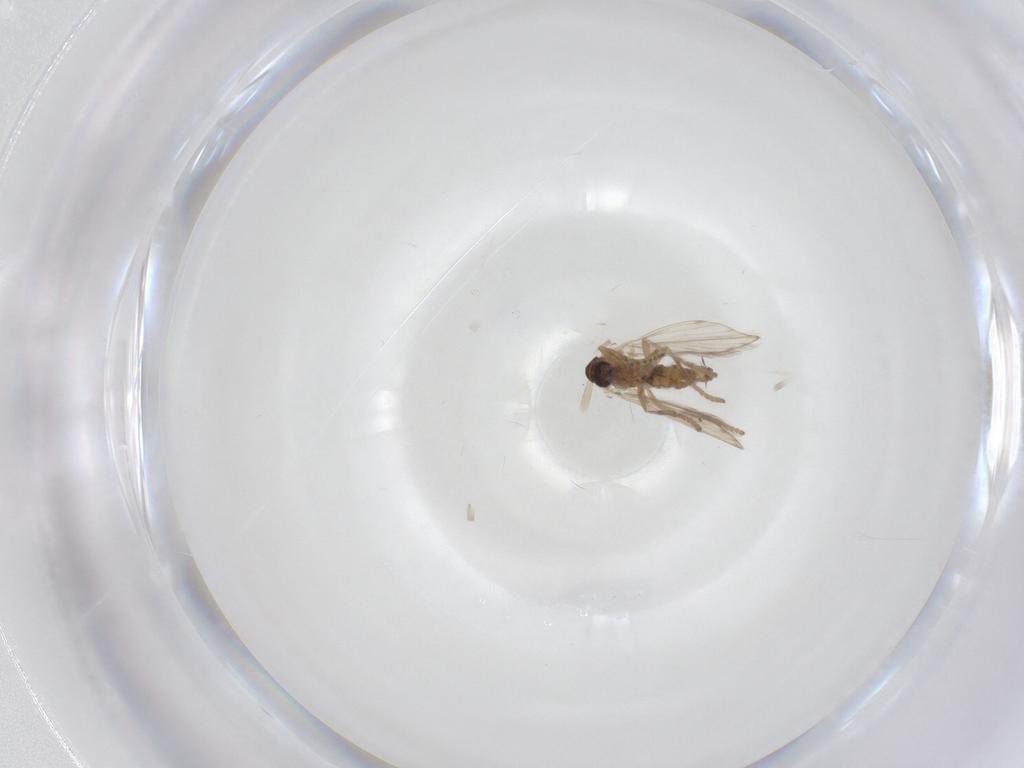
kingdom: Animalia
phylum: Arthropoda
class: Insecta
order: Diptera
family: Psychodidae
